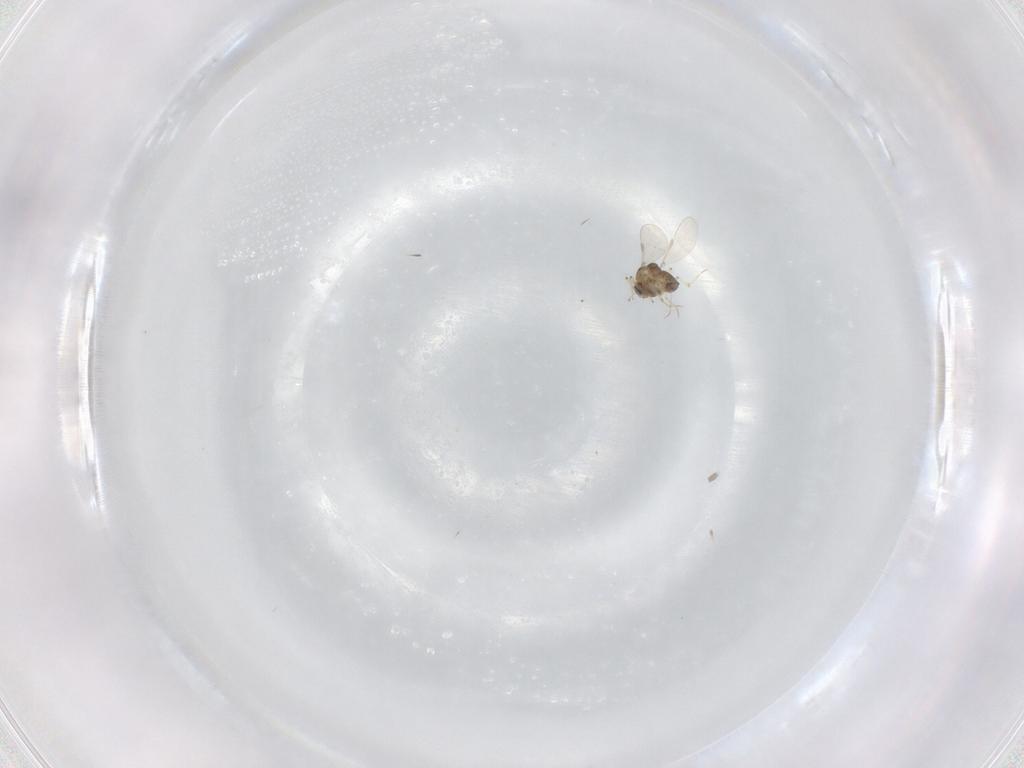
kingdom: Animalia
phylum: Arthropoda
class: Insecta
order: Diptera
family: Chironomidae
